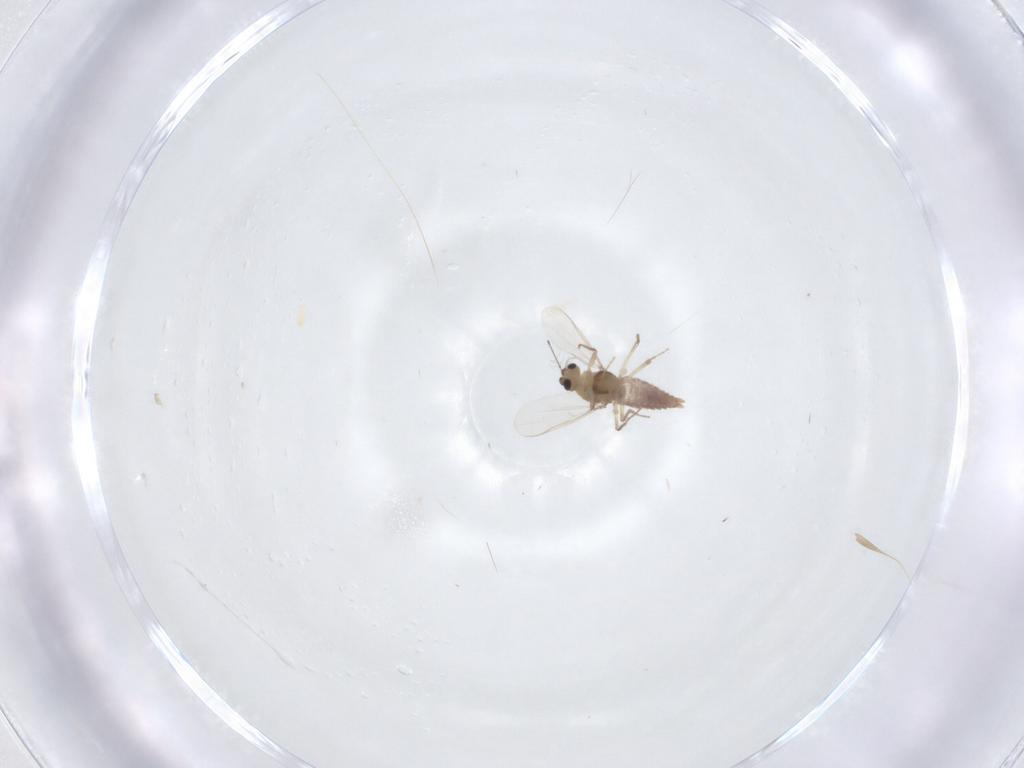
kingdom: Animalia
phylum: Arthropoda
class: Insecta
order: Diptera
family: Chironomidae
